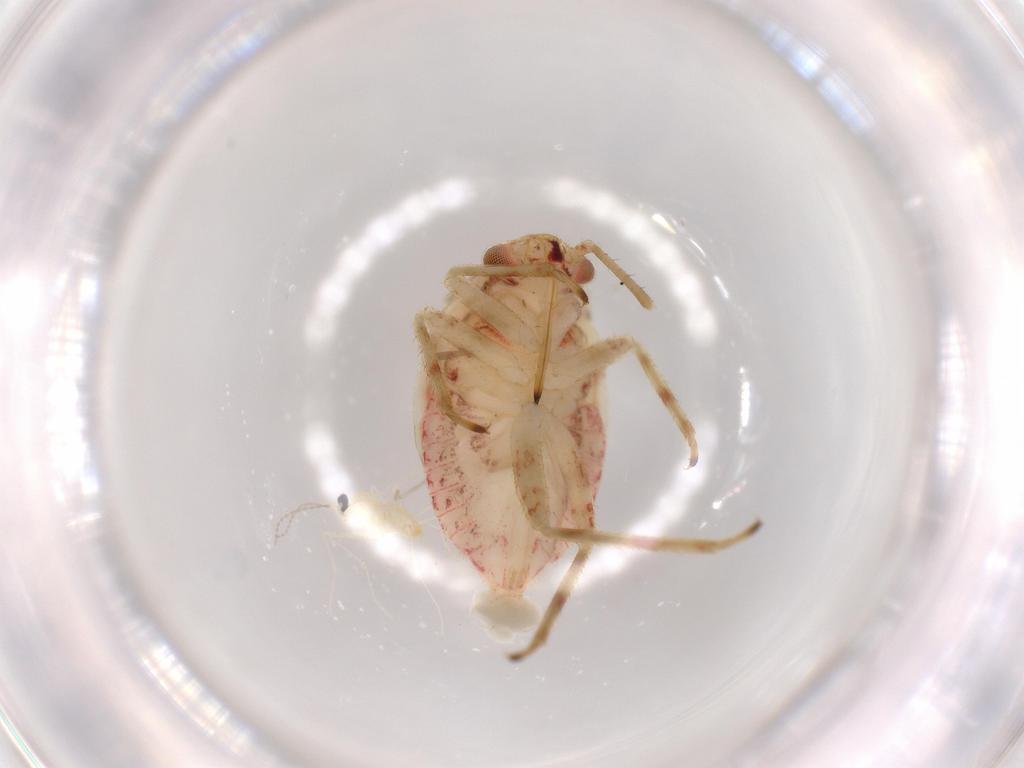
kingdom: Animalia
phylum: Arthropoda
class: Insecta
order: Hemiptera
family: Miridae
